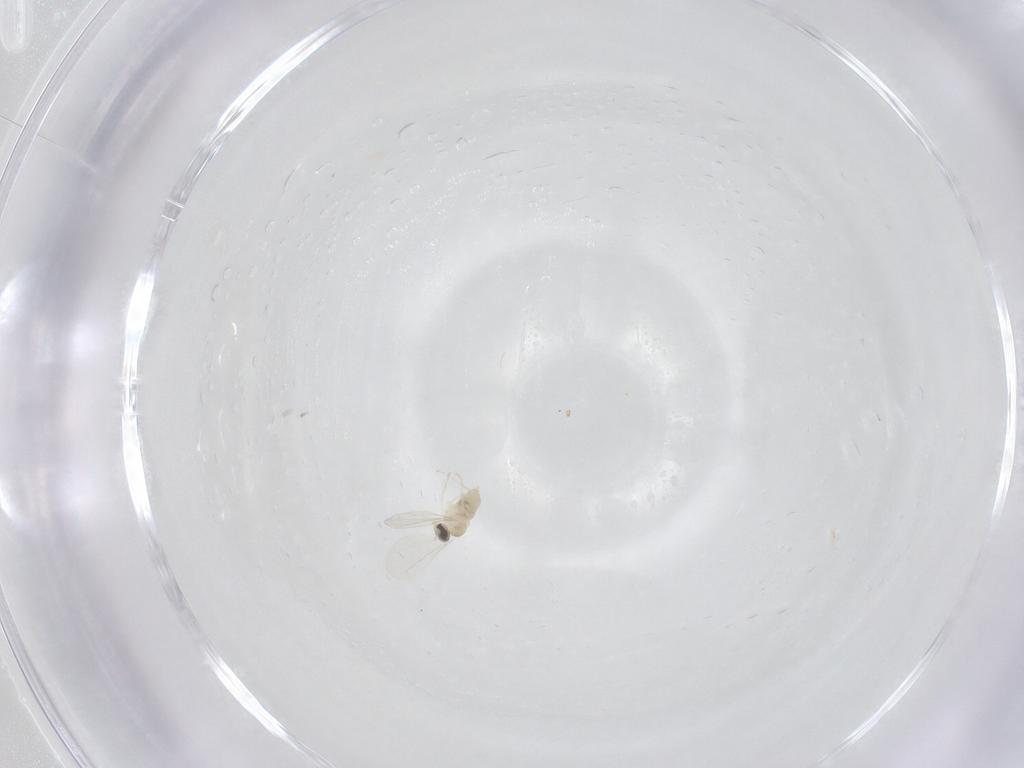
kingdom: Animalia
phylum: Arthropoda
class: Insecta
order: Diptera
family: Cecidomyiidae
